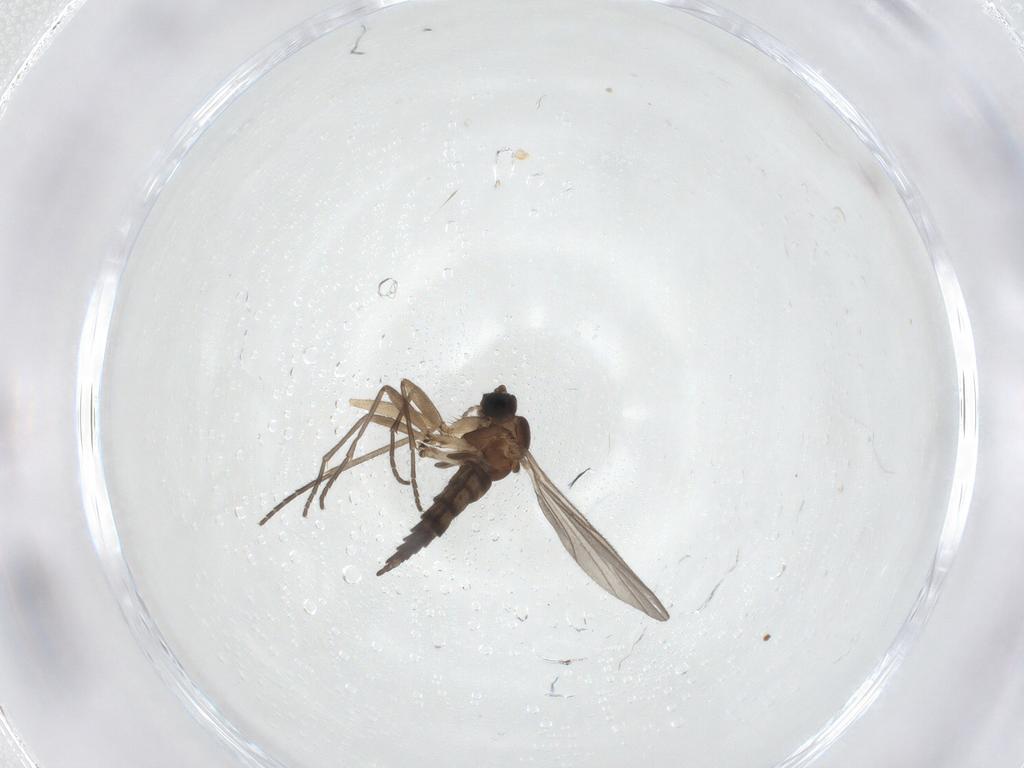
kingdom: Animalia
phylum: Arthropoda
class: Insecta
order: Diptera
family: Sciaridae
